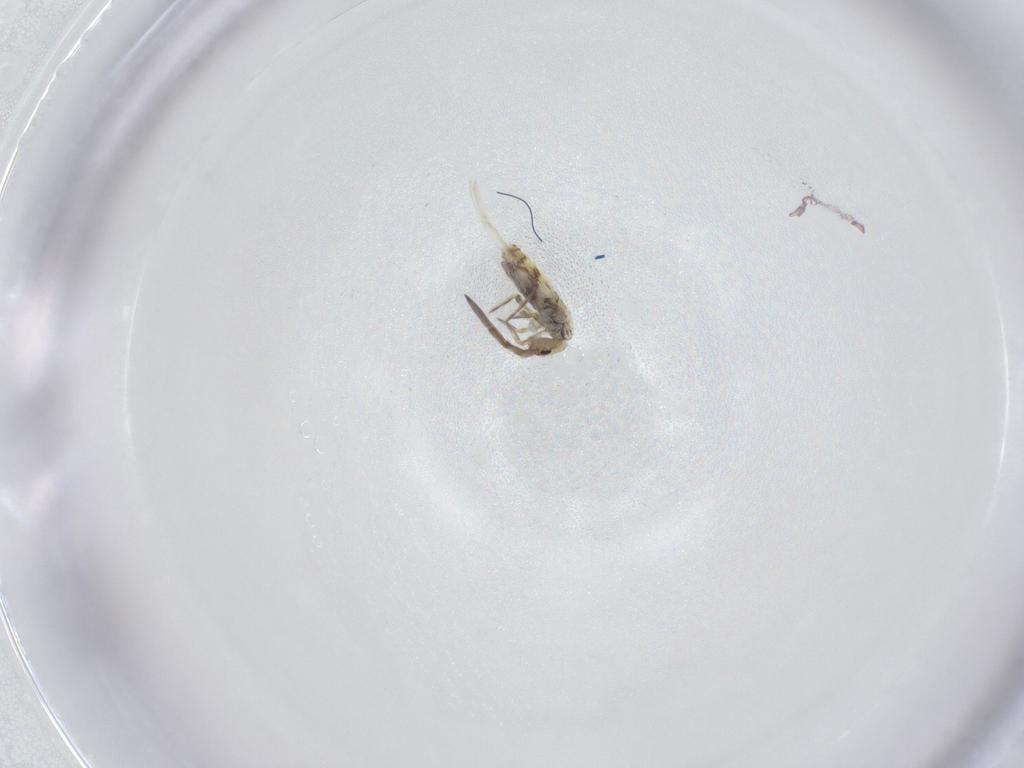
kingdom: Animalia
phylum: Arthropoda
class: Collembola
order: Entomobryomorpha
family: Entomobryidae
